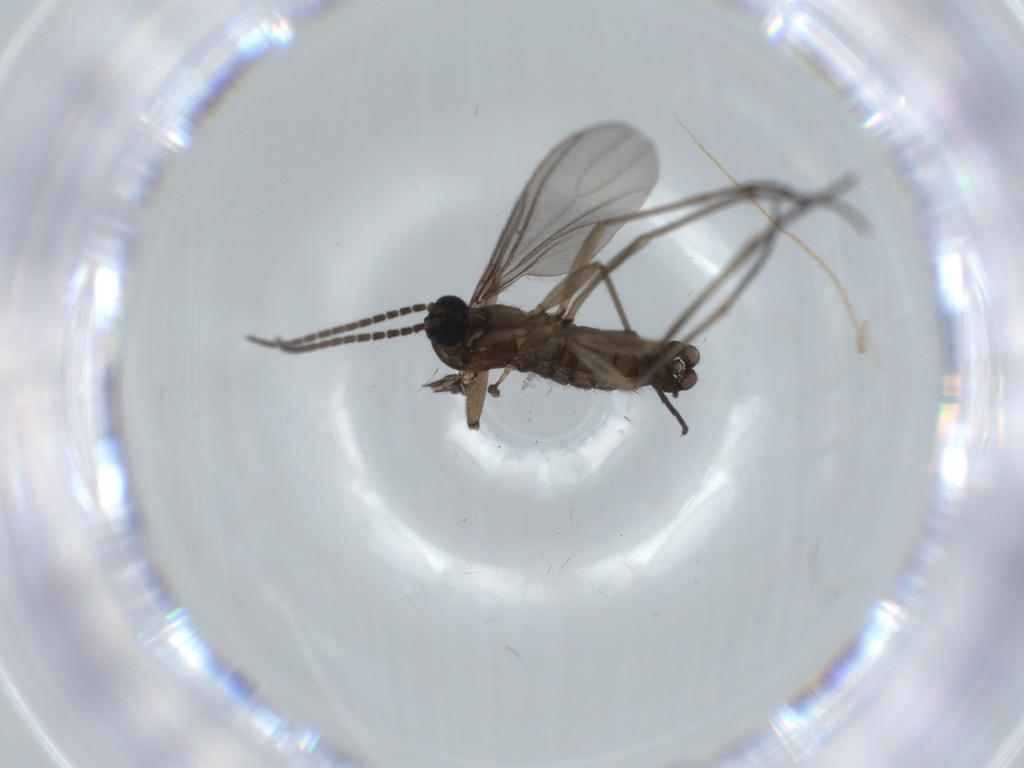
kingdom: Animalia
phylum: Arthropoda
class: Insecta
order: Diptera
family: Sciaridae
